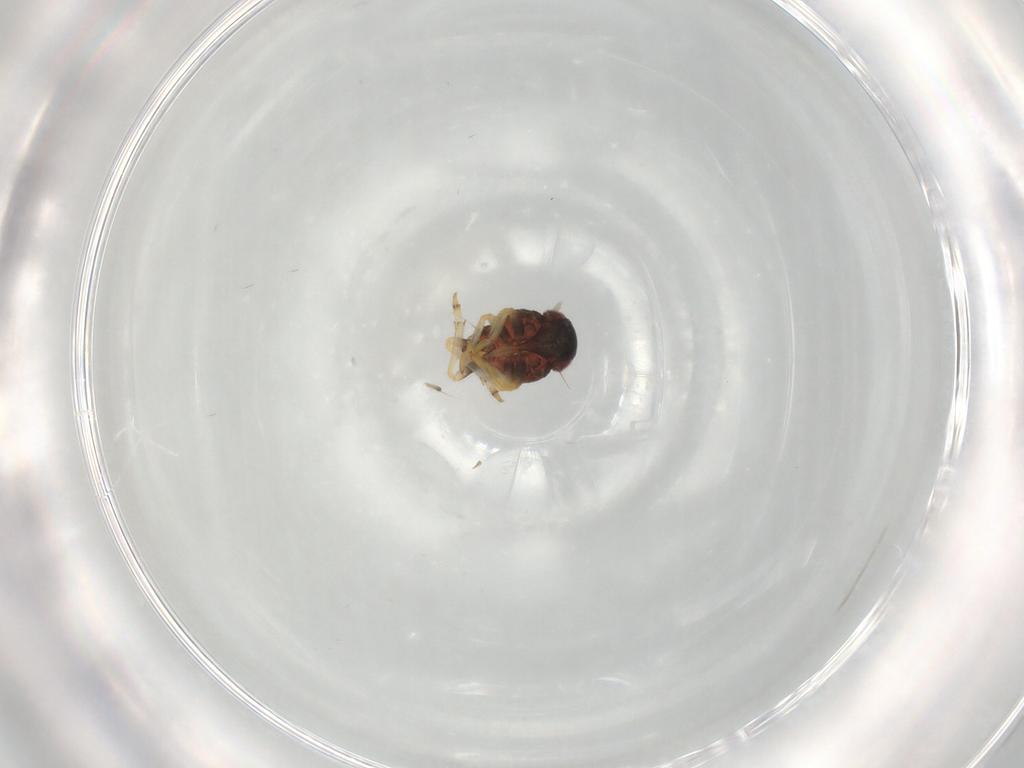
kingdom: Animalia
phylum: Arthropoda
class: Insecta
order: Hemiptera
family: Fulgoroidea_incertae_sedis
